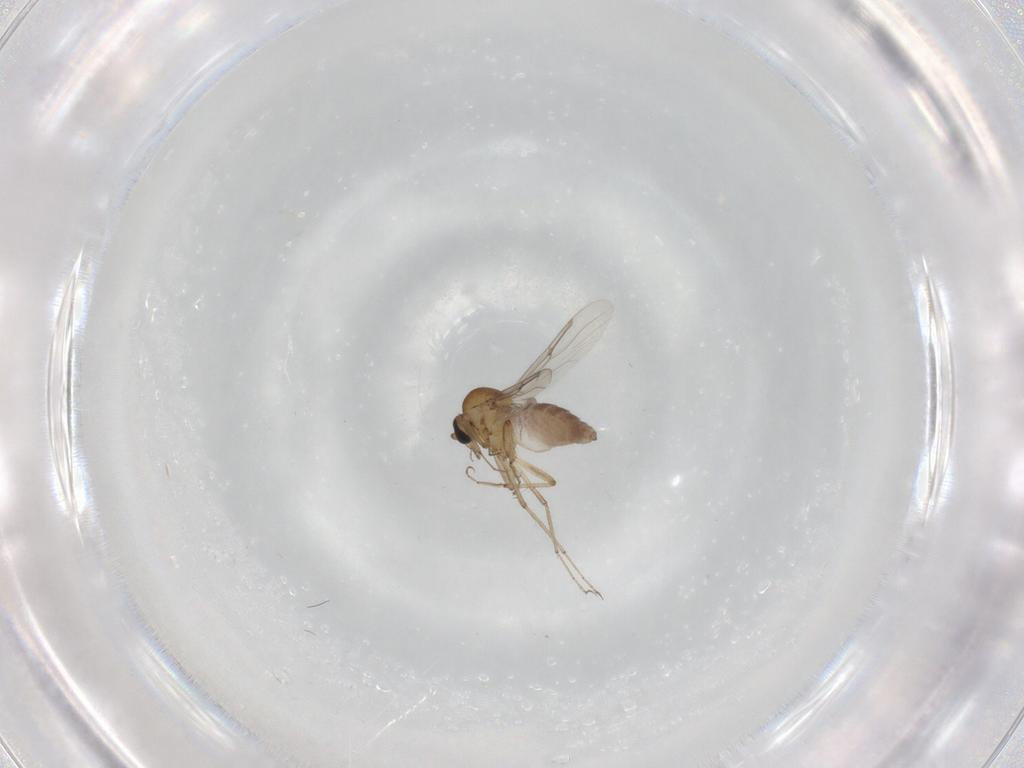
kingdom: Animalia
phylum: Arthropoda
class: Insecta
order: Diptera
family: Ceratopogonidae
